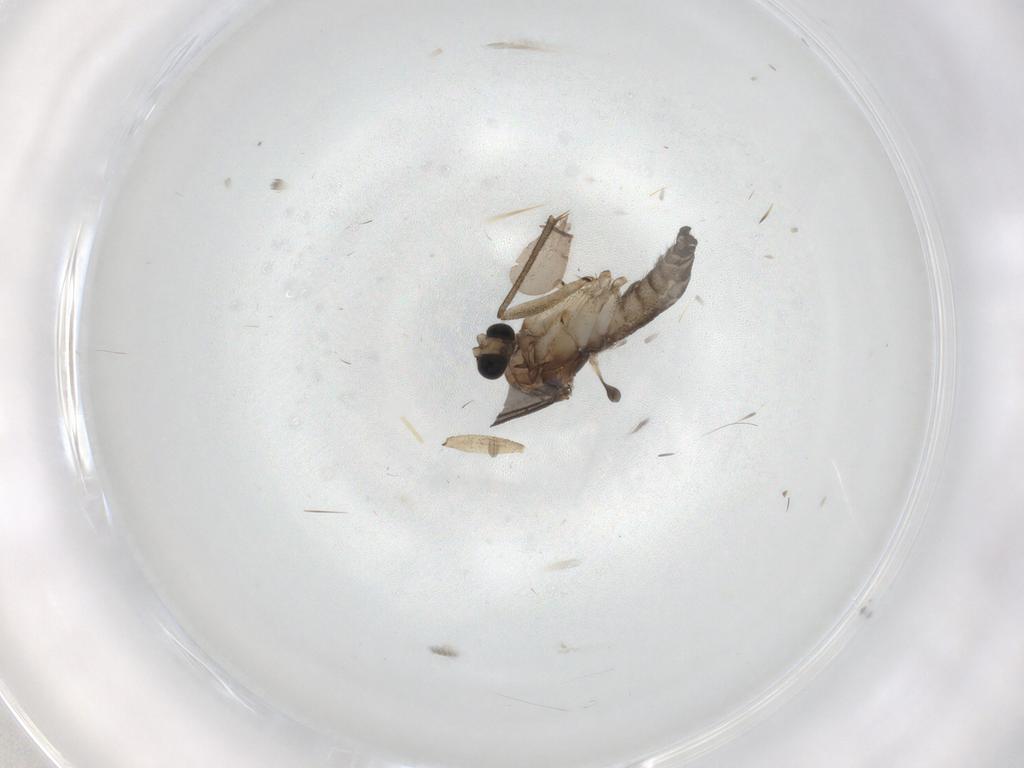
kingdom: Animalia
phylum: Arthropoda
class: Insecta
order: Diptera
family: Sciaridae
